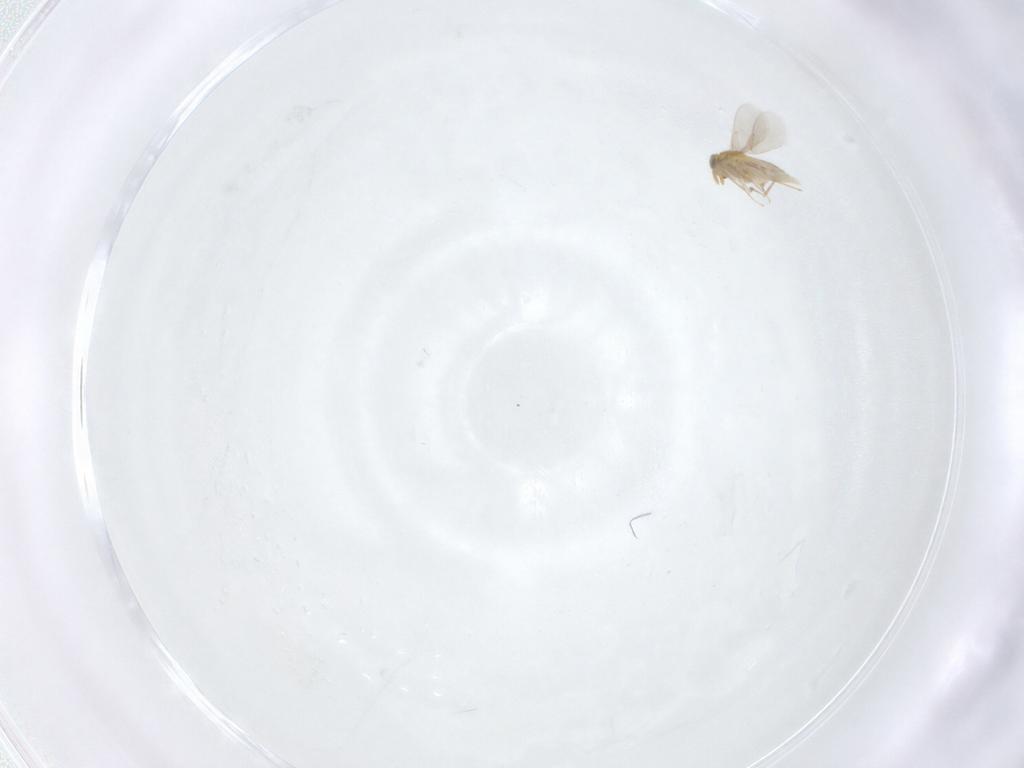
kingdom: Animalia
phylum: Arthropoda
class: Insecta
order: Hymenoptera
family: Aphelinidae
